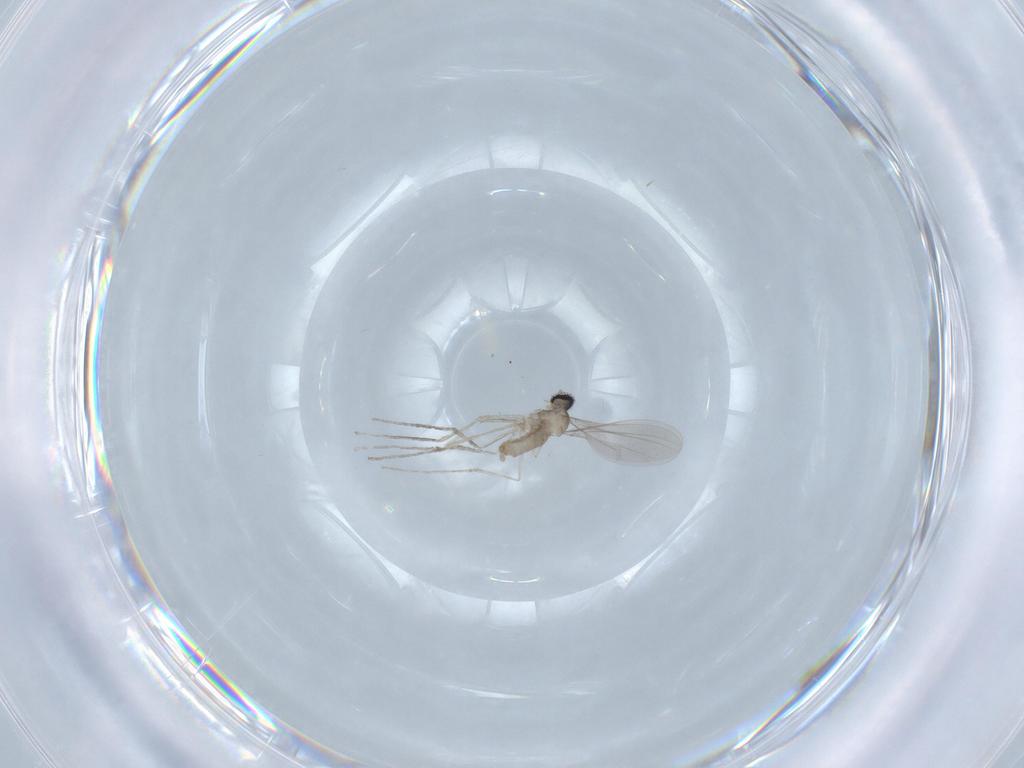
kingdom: Animalia
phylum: Arthropoda
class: Insecta
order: Diptera
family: Cecidomyiidae
